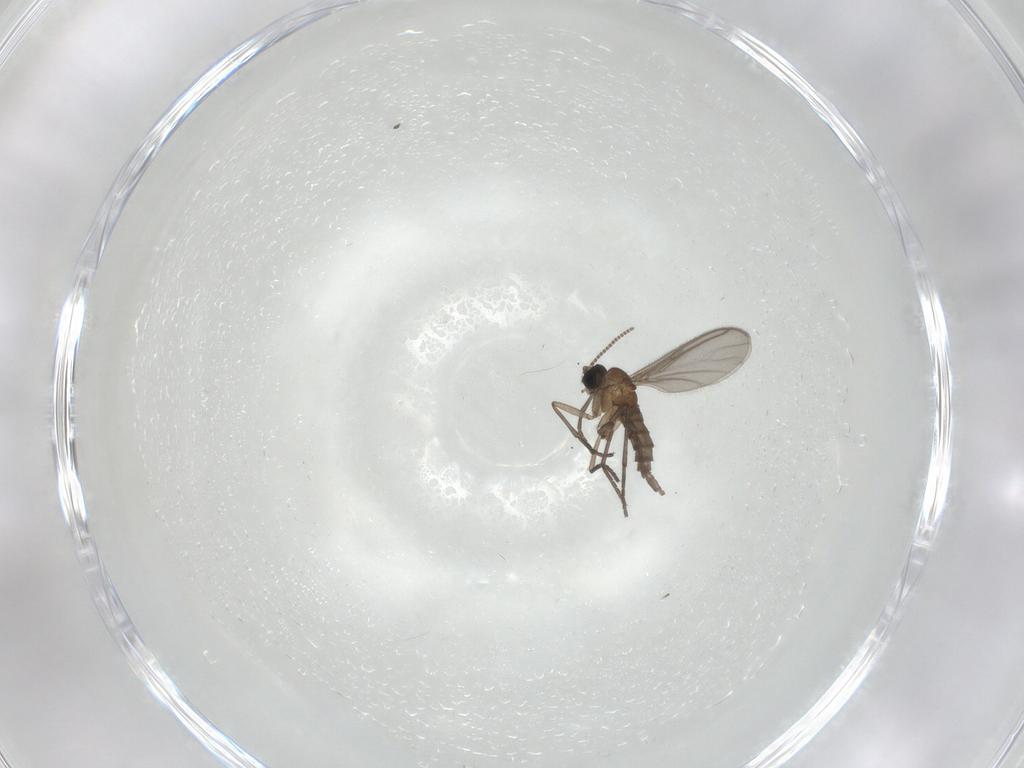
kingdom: Animalia
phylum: Arthropoda
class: Insecta
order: Diptera
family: Sciaridae
